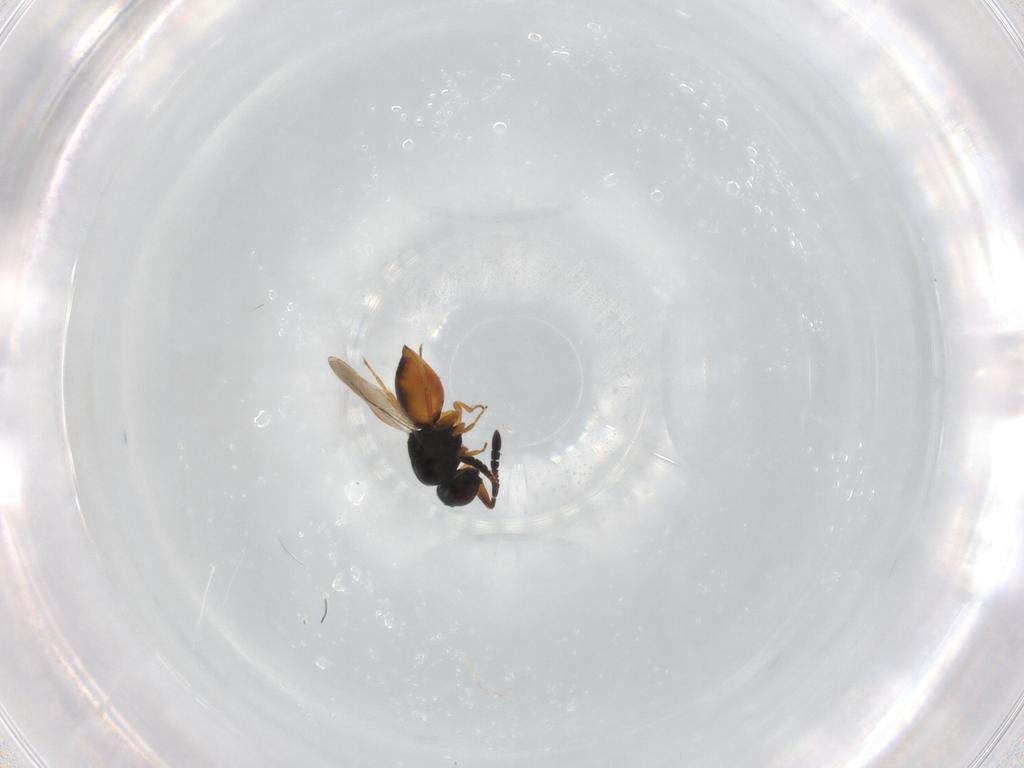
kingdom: Animalia
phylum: Arthropoda
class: Insecta
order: Hymenoptera
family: Ceraphronidae
